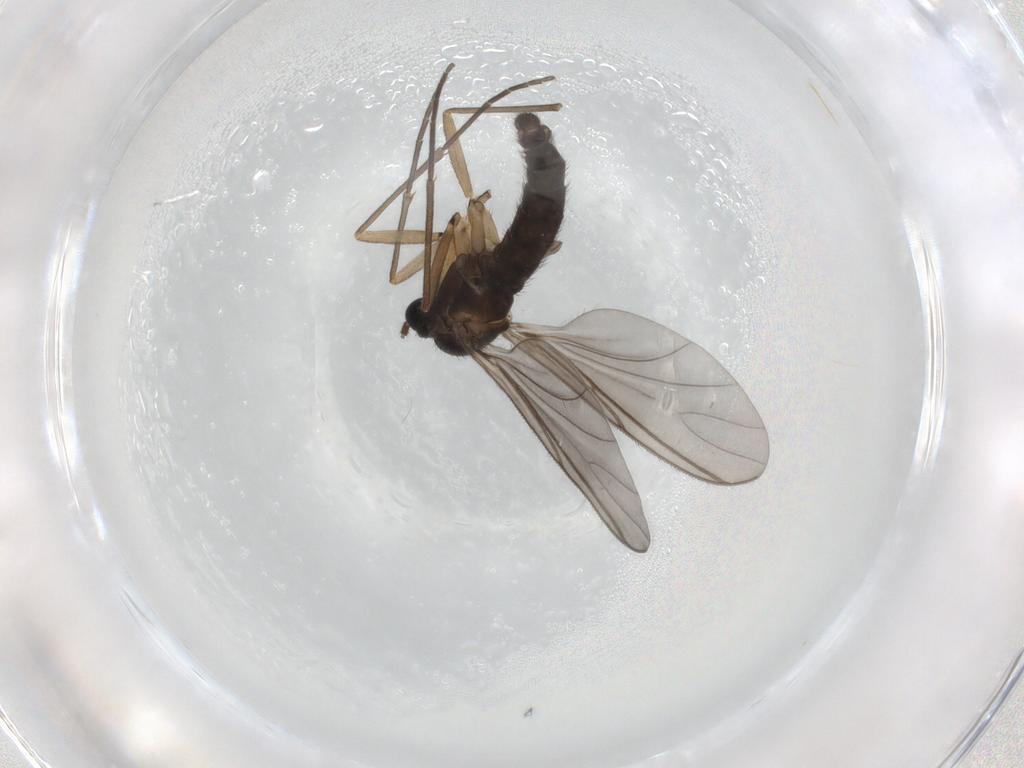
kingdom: Animalia
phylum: Arthropoda
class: Insecta
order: Diptera
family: Sciaridae
